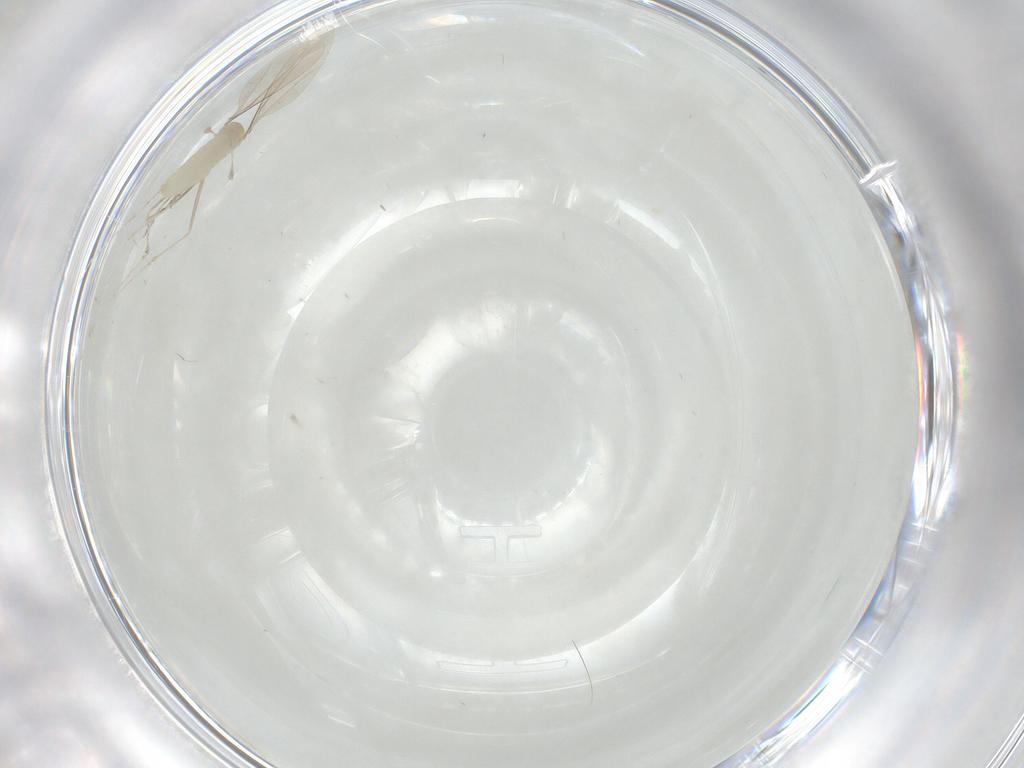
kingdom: Animalia
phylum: Arthropoda
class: Insecta
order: Diptera
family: Cecidomyiidae
